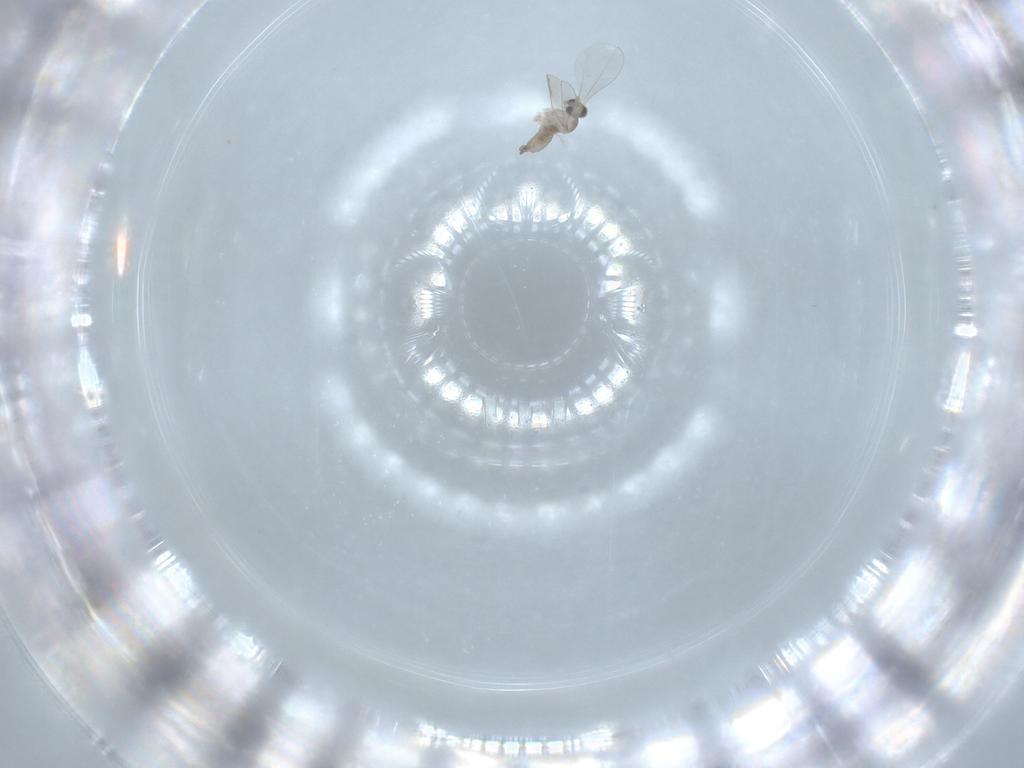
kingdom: Animalia
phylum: Arthropoda
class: Insecta
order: Diptera
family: Cecidomyiidae
